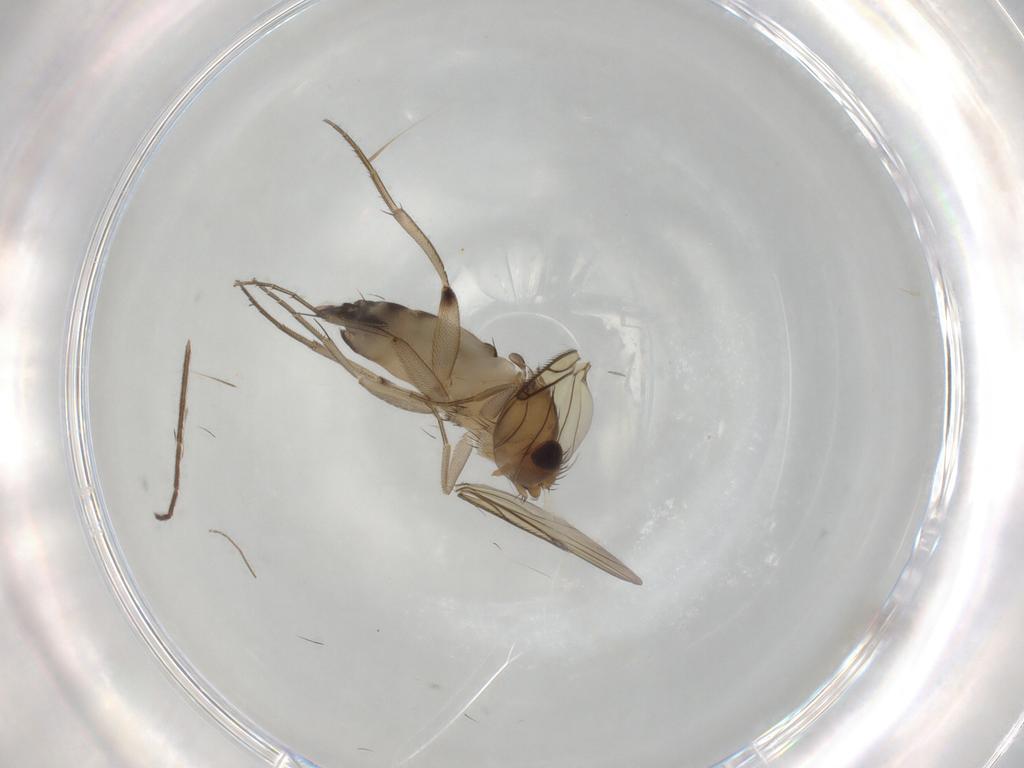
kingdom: Animalia
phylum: Arthropoda
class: Insecta
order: Diptera
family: Phoridae
